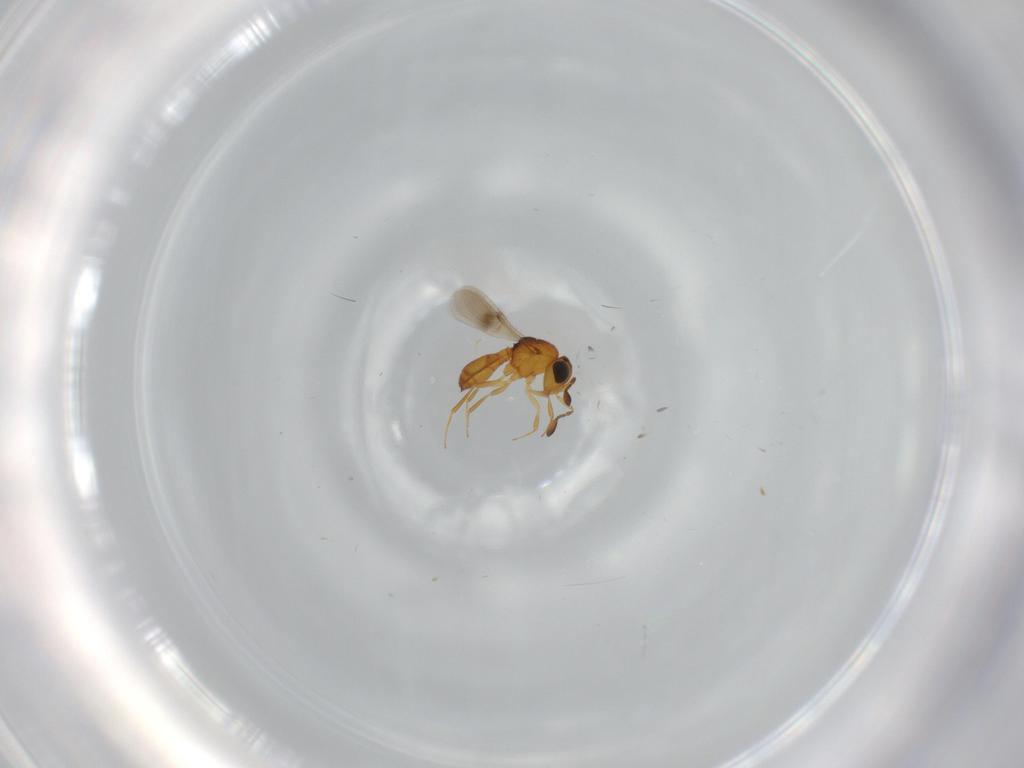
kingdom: Animalia
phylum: Arthropoda
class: Insecta
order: Hymenoptera
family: Scelionidae
